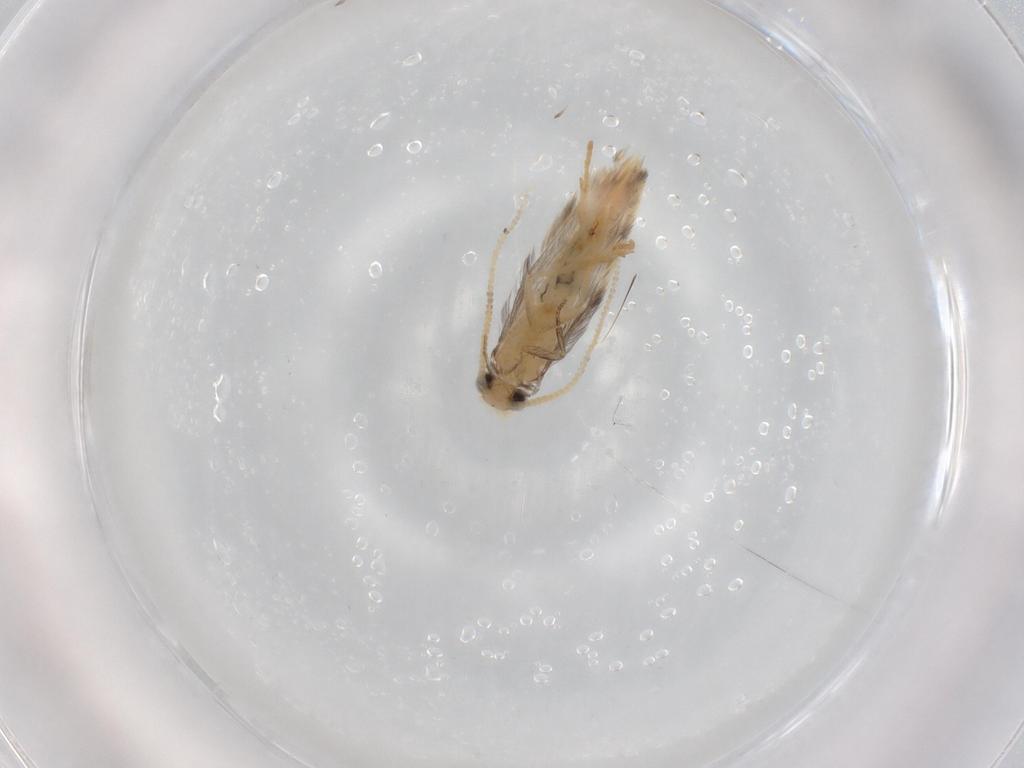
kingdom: Animalia
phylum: Arthropoda
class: Insecta
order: Trichoptera
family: Hydroptilidae
